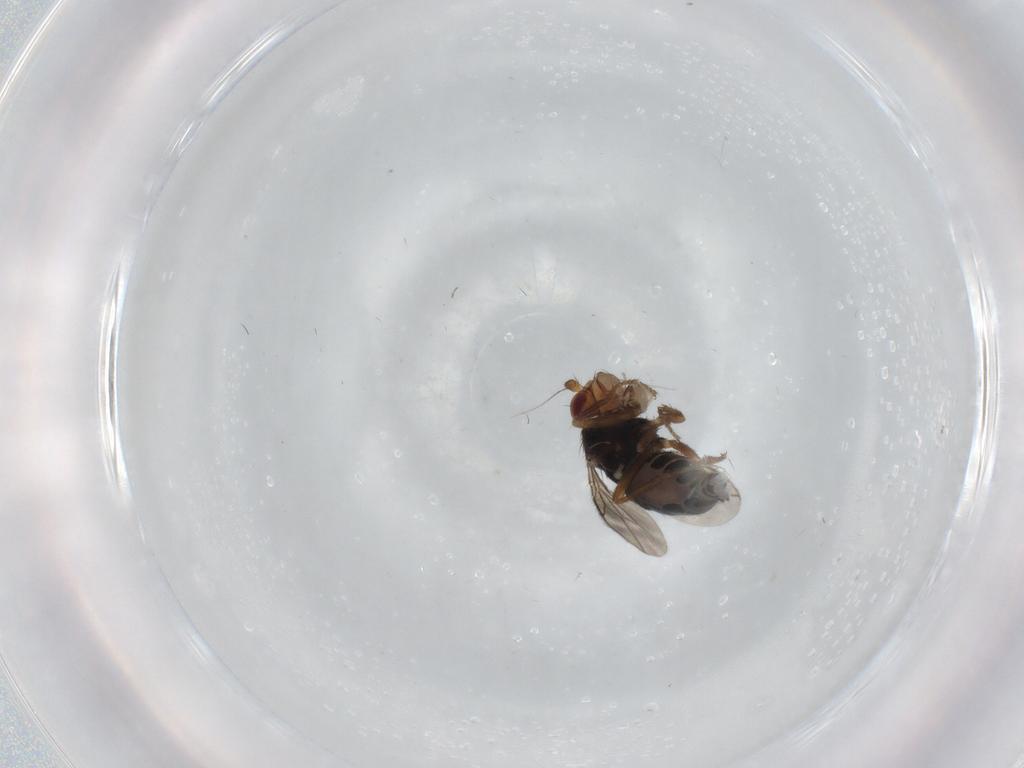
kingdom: Animalia
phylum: Arthropoda
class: Insecta
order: Diptera
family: Sphaeroceridae
